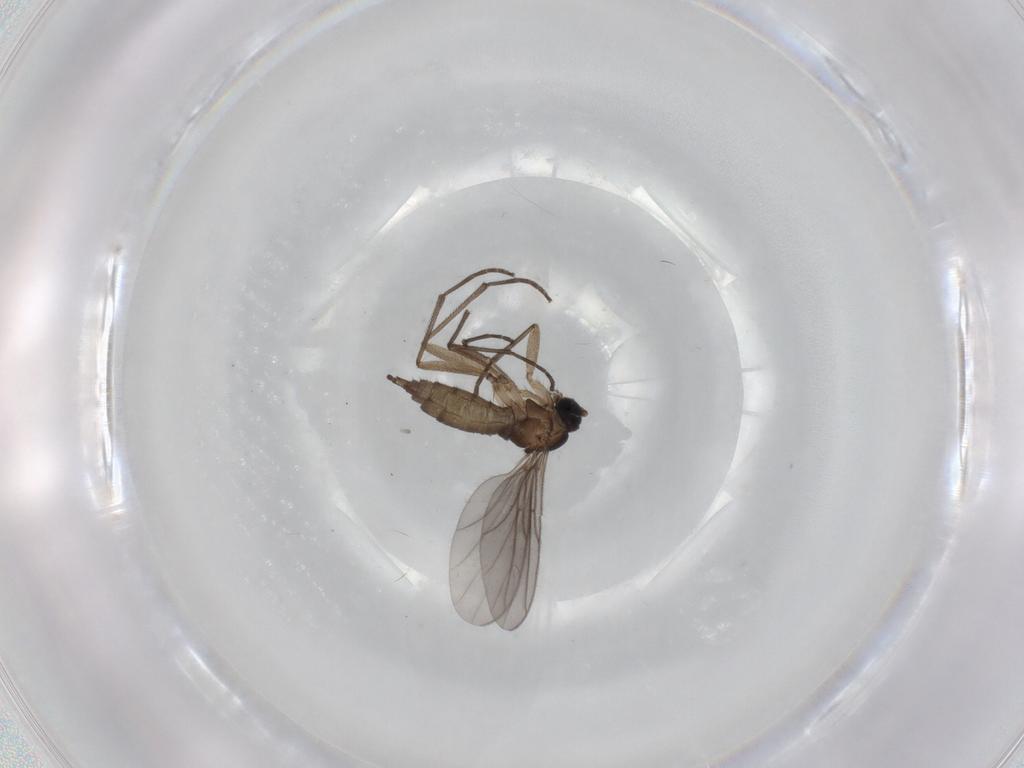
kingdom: Animalia
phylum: Arthropoda
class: Insecta
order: Diptera
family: Sciaridae
